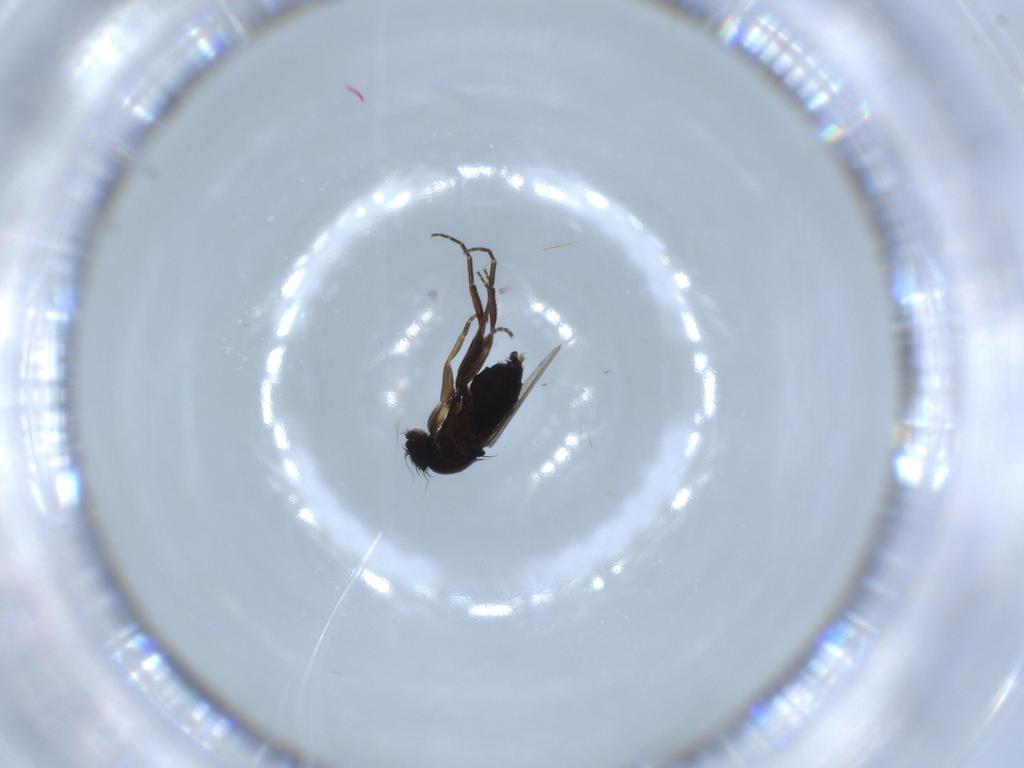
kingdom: Animalia
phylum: Arthropoda
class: Insecta
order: Diptera
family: Phoridae
